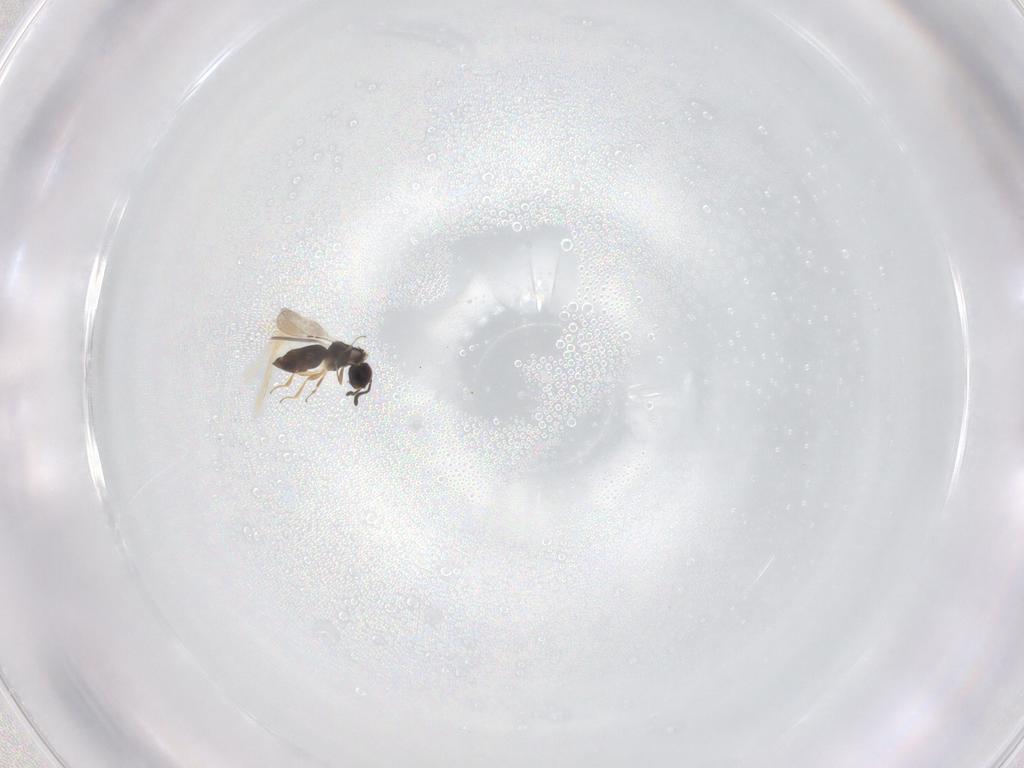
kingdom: Animalia
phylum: Arthropoda
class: Insecta
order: Hymenoptera
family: Eulophidae
